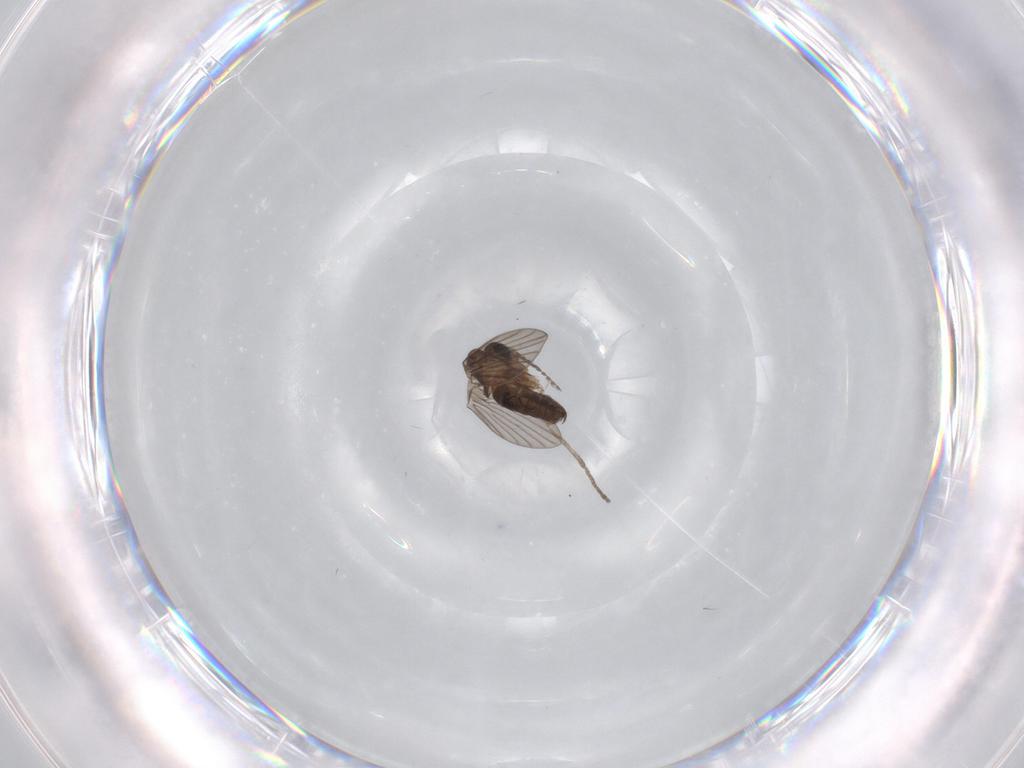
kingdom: Animalia
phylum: Arthropoda
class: Insecta
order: Diptera
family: Psychodidae
